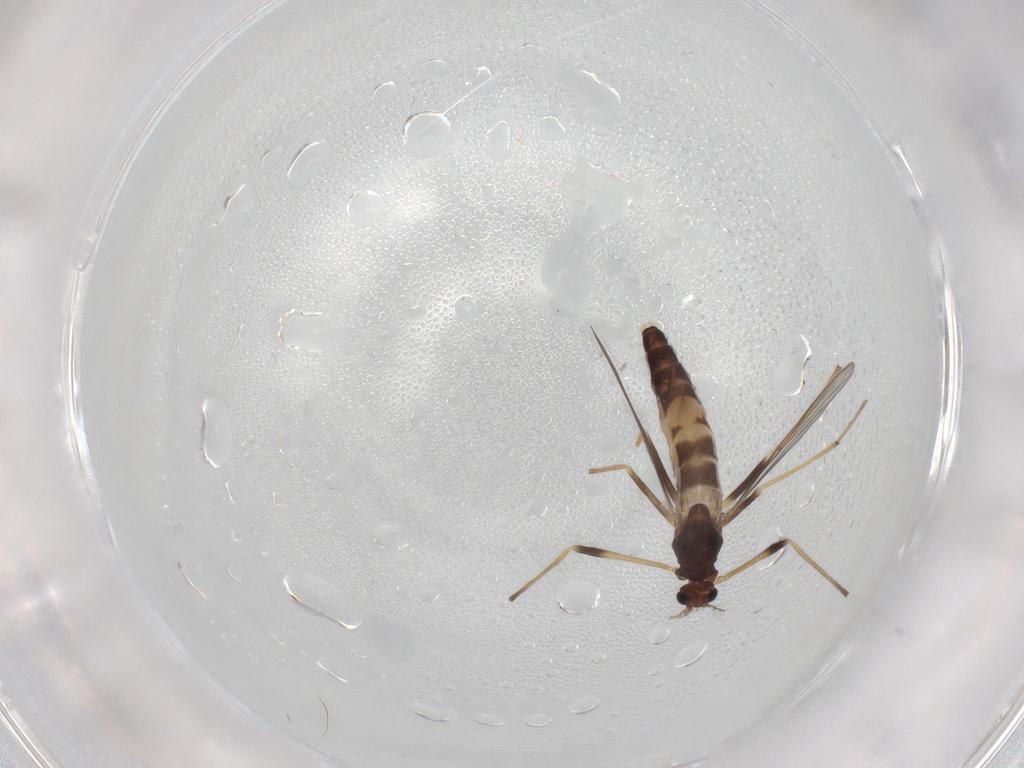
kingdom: Animalia
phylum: Arthropoda
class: Insecta
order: Diptera
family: Chironomidae
